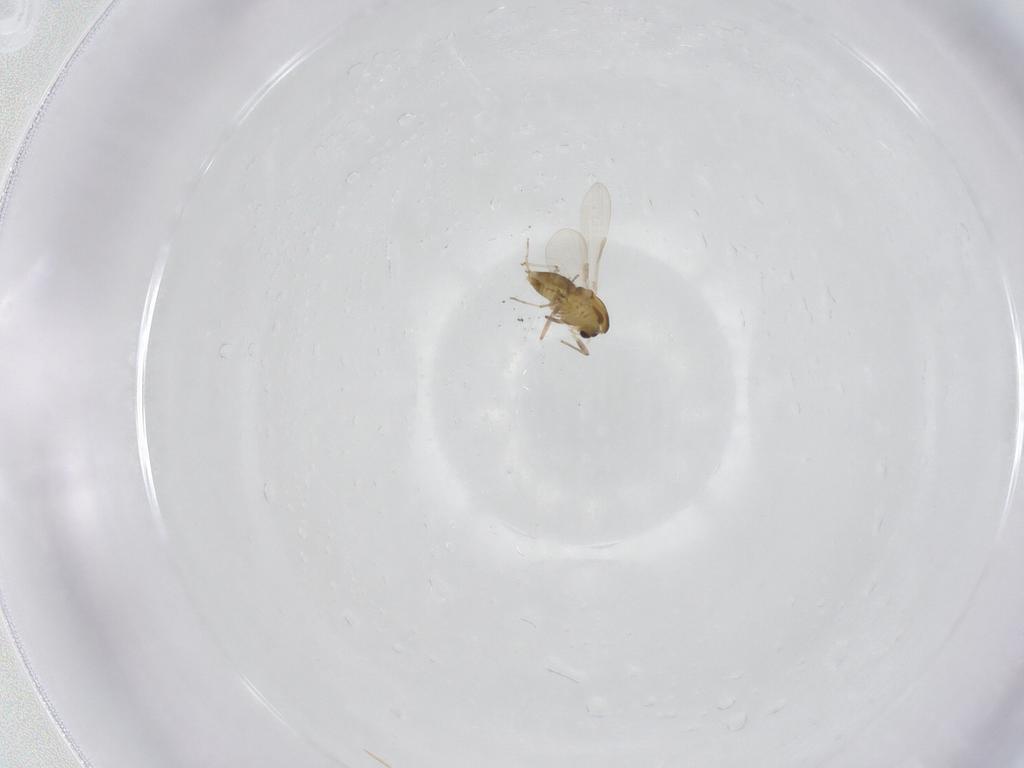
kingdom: Animalia
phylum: Arthropoda
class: Insecta
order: Diptera
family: Chironomidae
